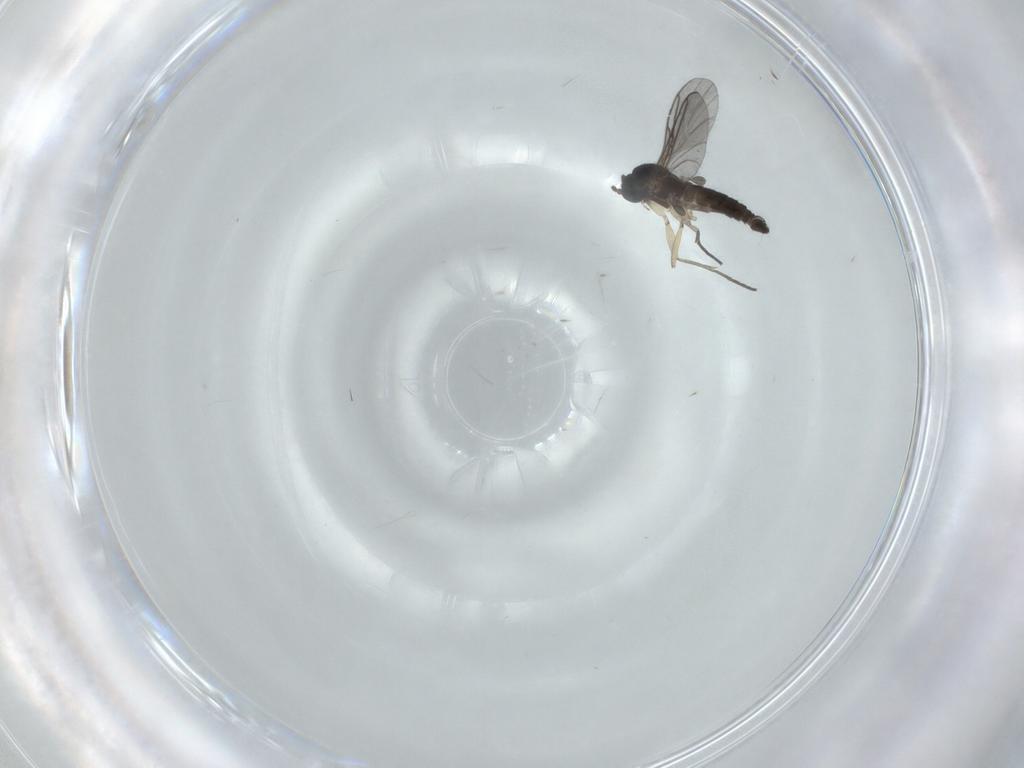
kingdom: Animalia
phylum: Arthropoda
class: Insecta
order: Diptera
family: Sciaridae
